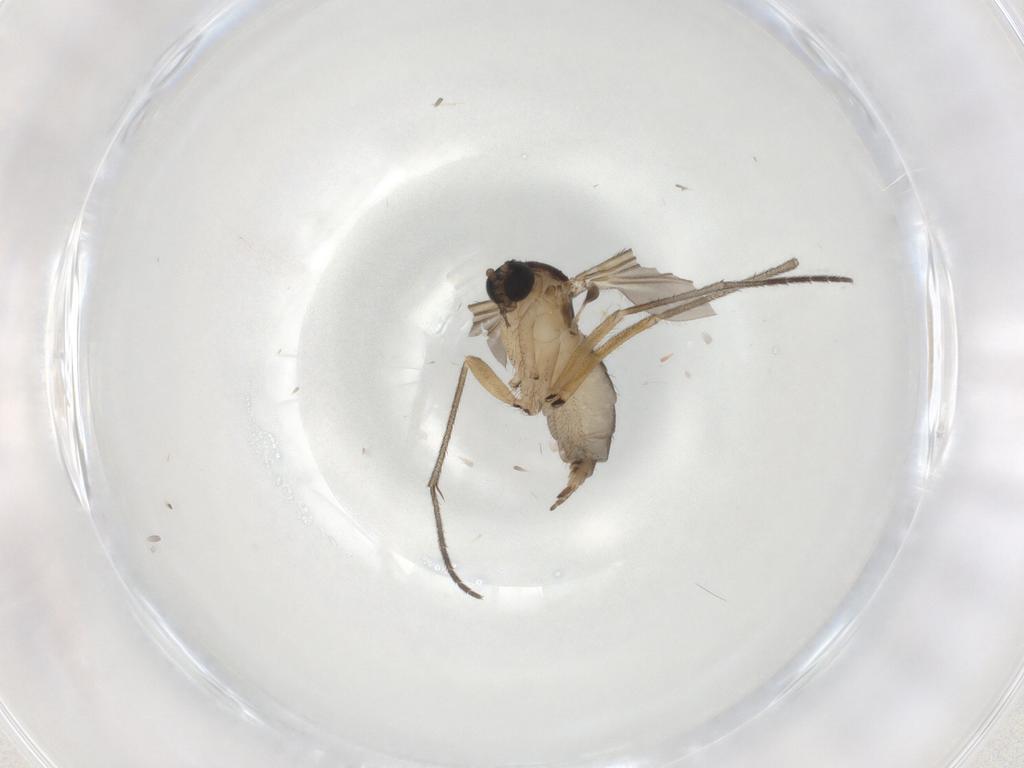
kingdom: Animalia
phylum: Arthropoda
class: Insecta
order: Diptera
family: Sciaridae
